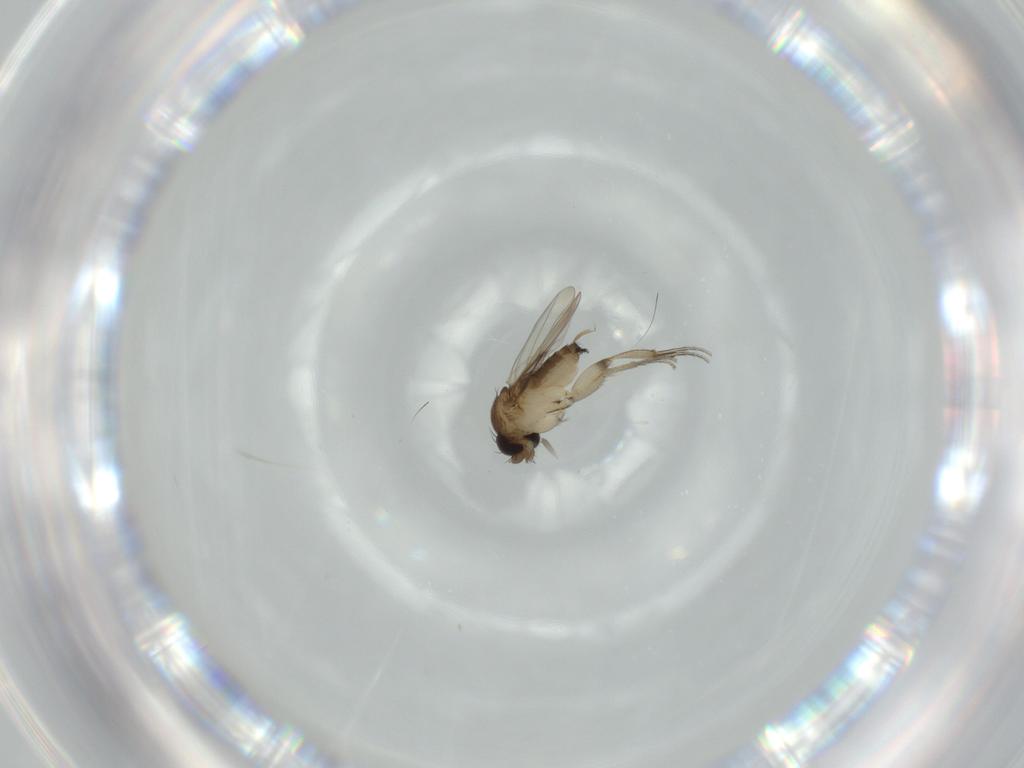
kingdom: Animalia
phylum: Arthropoda
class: Insecta
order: Diptera
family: Phoridae
